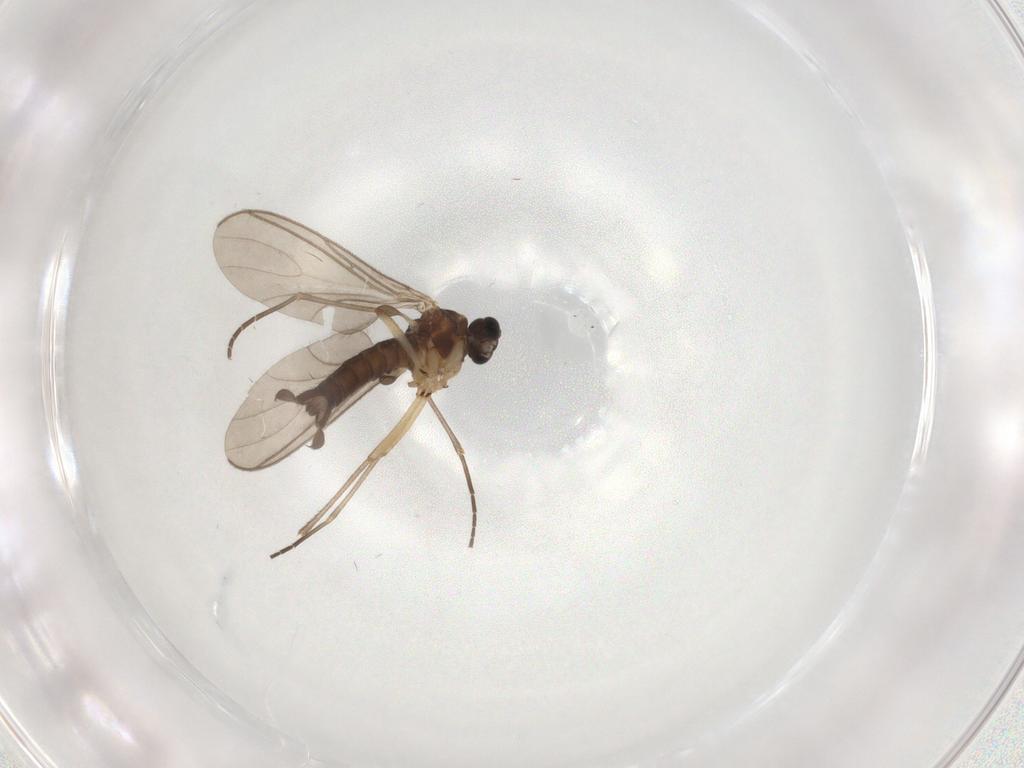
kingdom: Animalia
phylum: Arthropoda
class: Insecta
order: Diptera
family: Sciaridae
